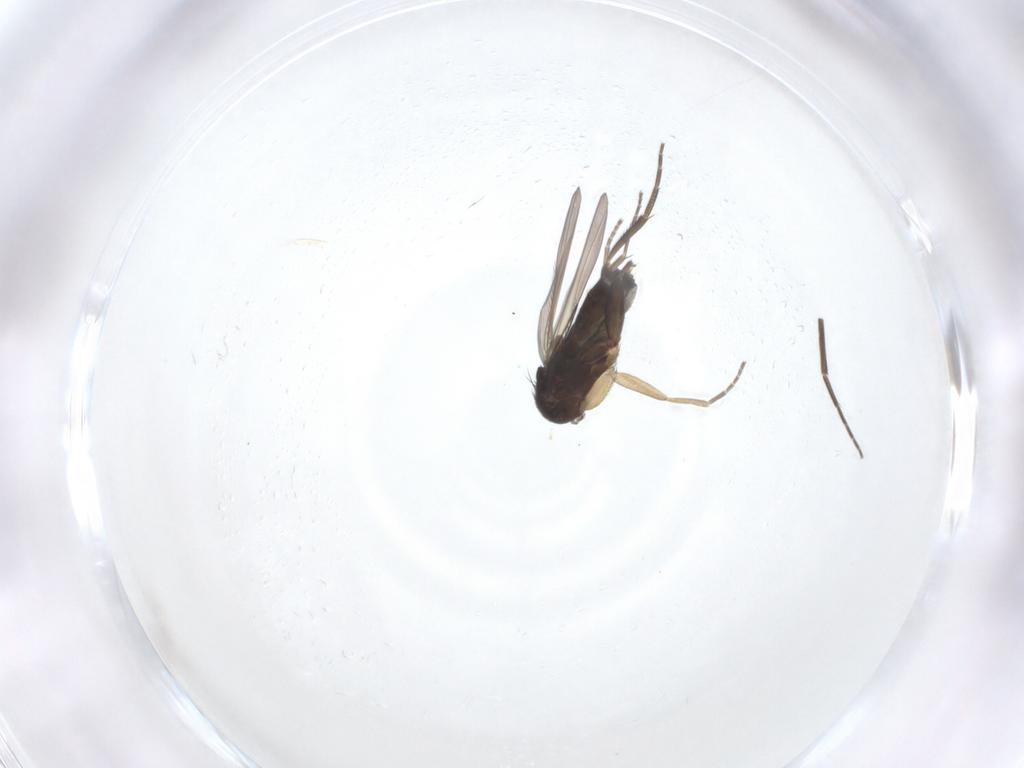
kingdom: Animalia
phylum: Arthropoda
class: Insecta
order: Diptera
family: Phoridae
